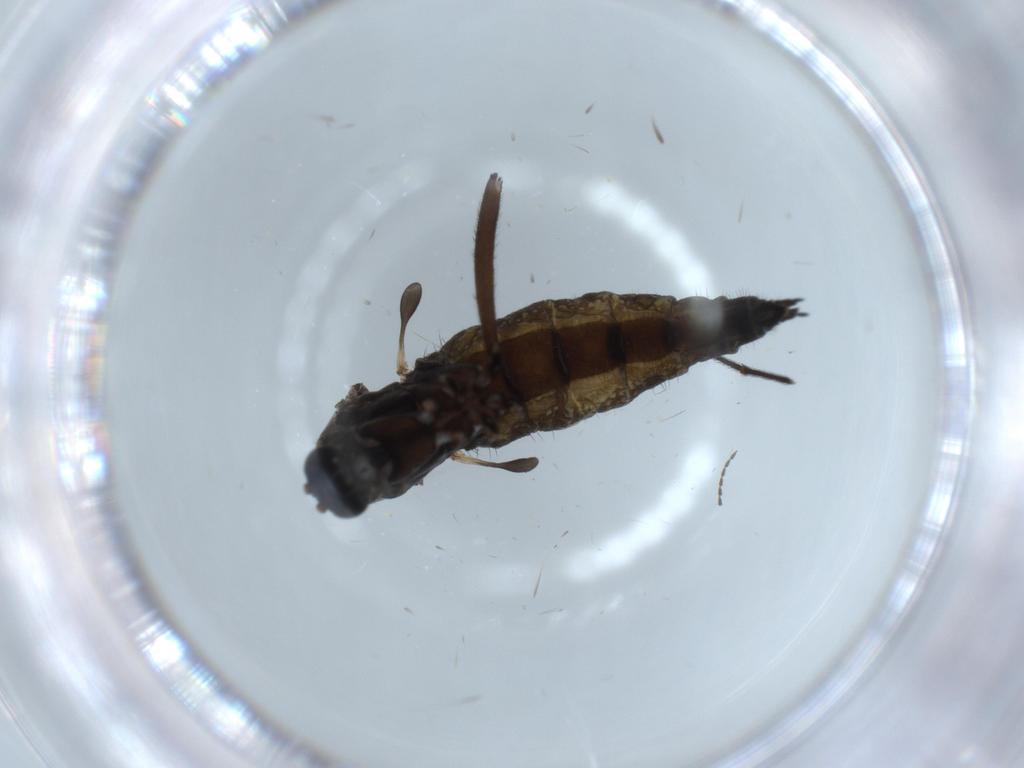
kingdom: Animalia
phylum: Arthropoda
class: Insecta
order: Diptera
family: Sciaridae
